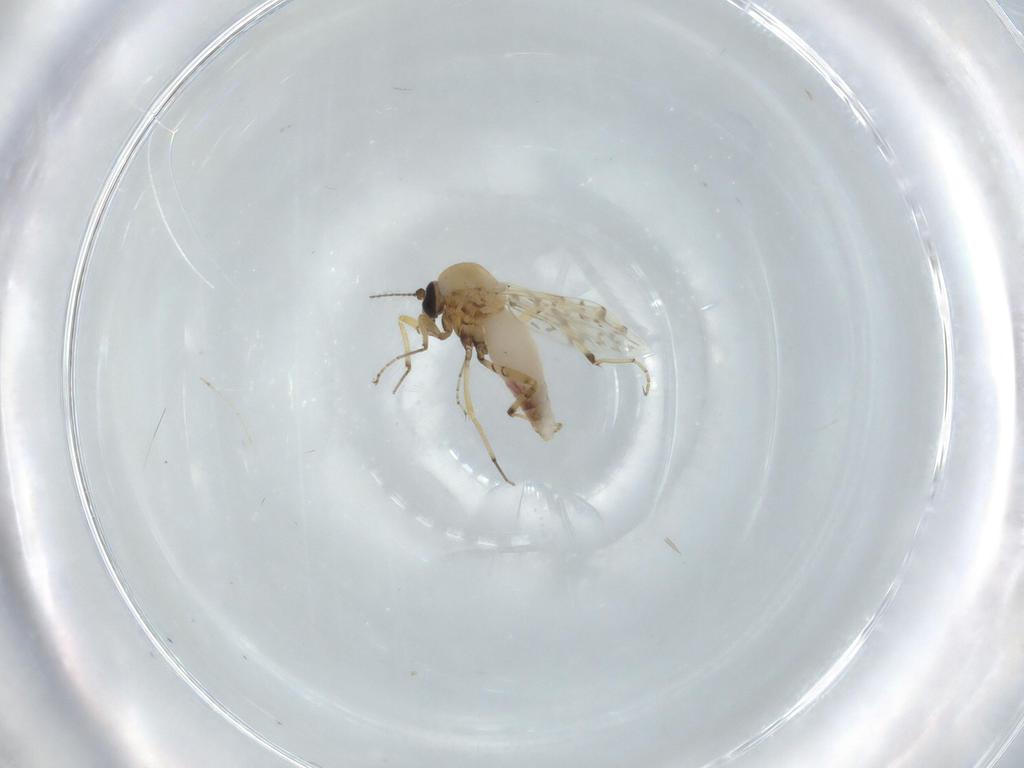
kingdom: Animalia
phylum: Arthropoda
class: Insecta
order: Diptera
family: Ceratopogonidae
